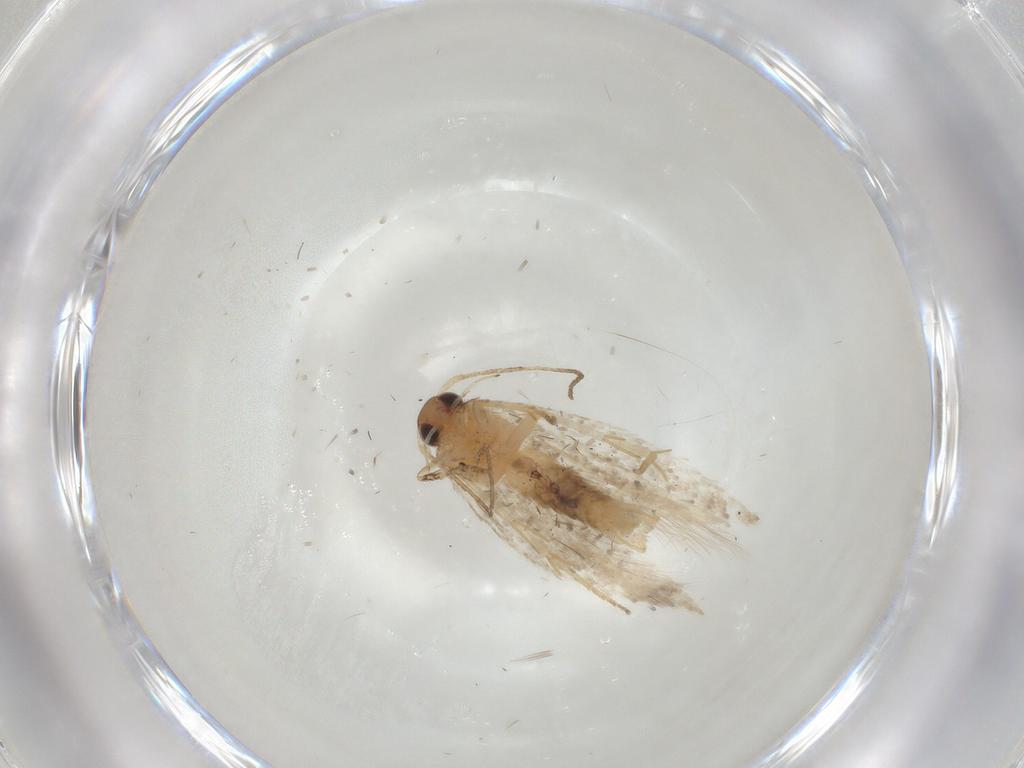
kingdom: Animalia
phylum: Arthropoda
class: Insecta
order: Lepidoptera
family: Gelechiidae
